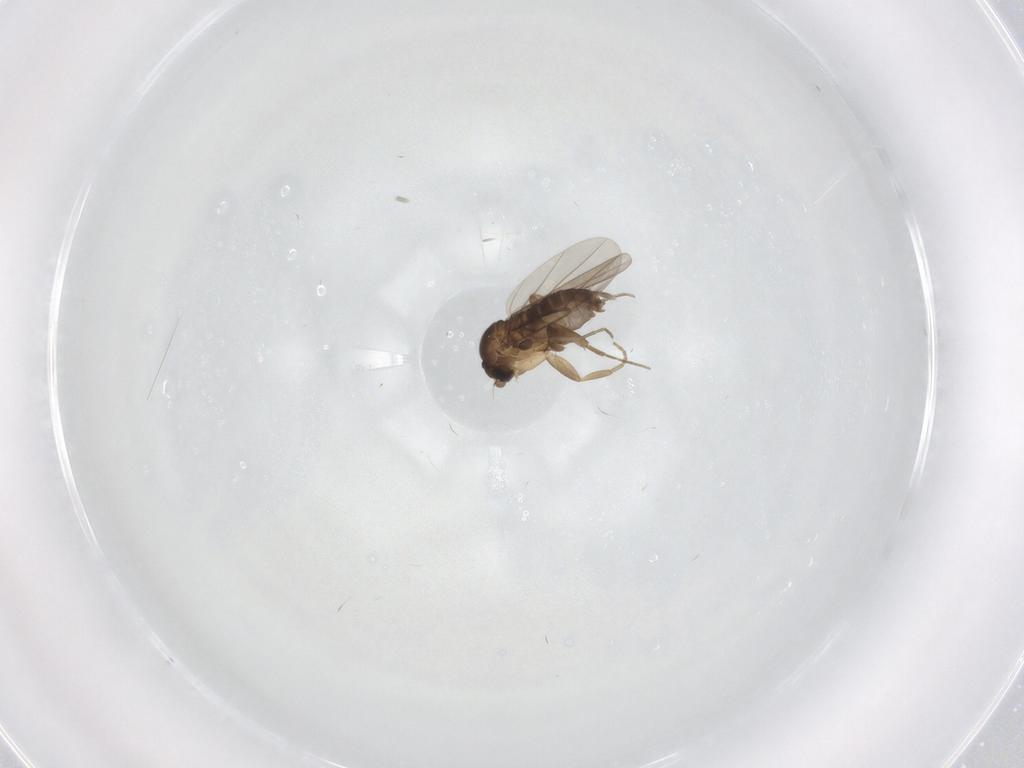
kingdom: Animalia
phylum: Arthropoda
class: Insecta
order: Diptera
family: Phoridae
